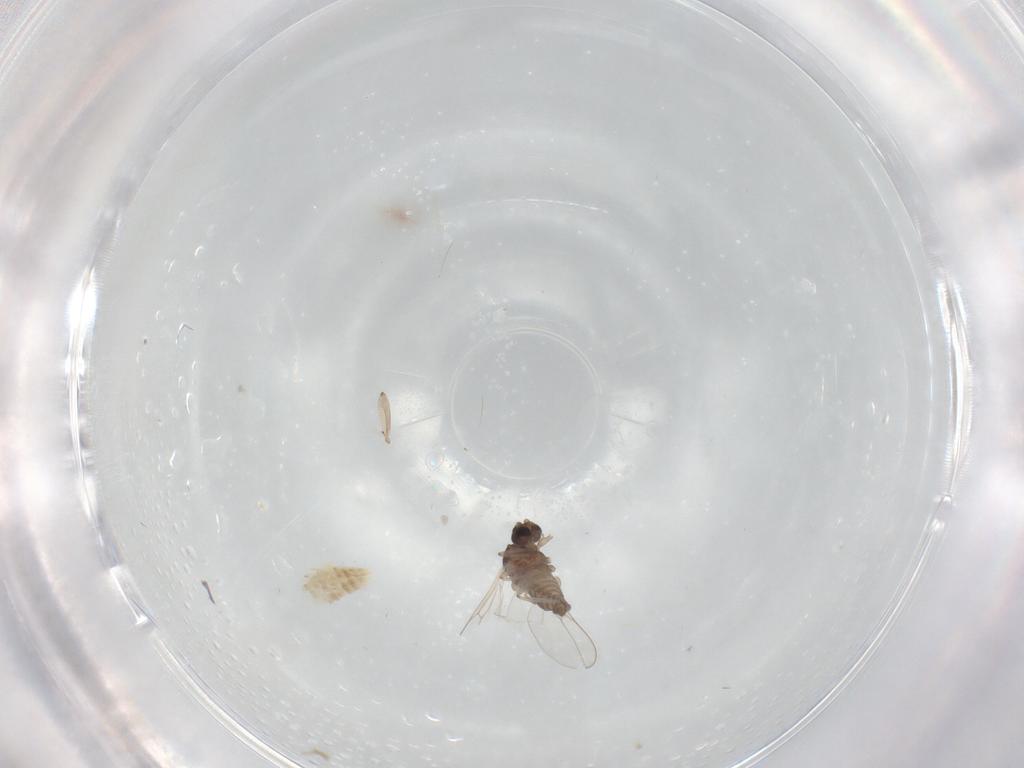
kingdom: Animalia
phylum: Arthropoda
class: Insecta
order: Diptera
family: Cecidomyiidae
